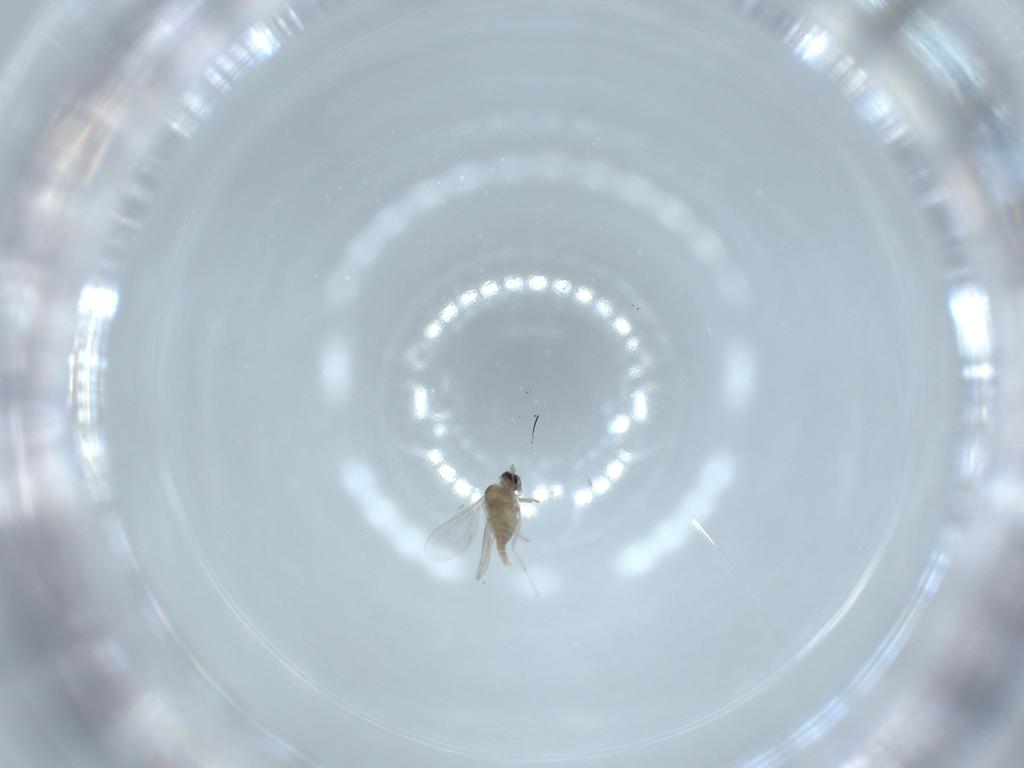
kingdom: Animalia
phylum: Arthropoda
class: Insecta
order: Diptera
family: Cecidomyiidae
